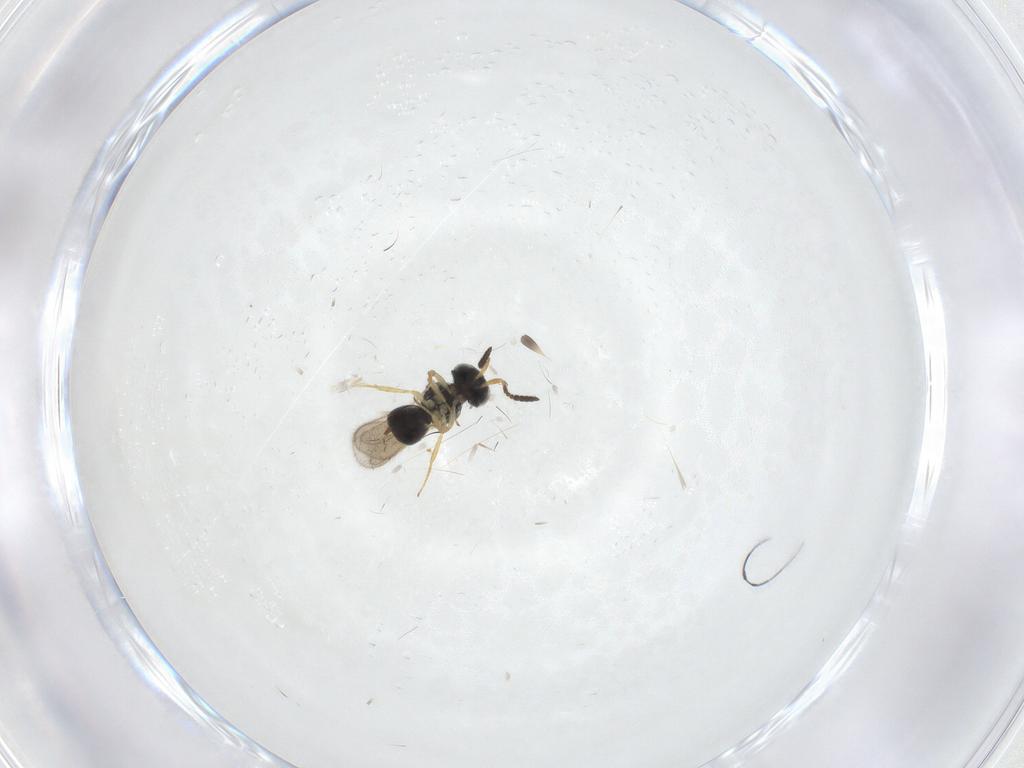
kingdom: Animalia
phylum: Arthropoda
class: Insecta
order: Hymenoptera
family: Scelionidae
